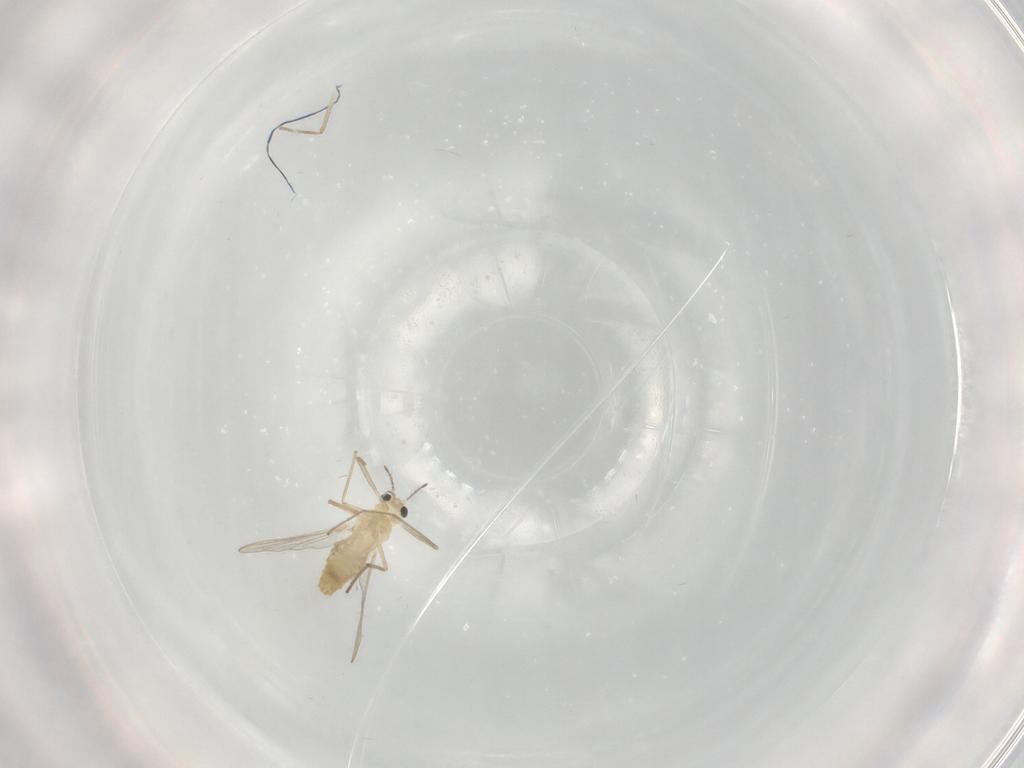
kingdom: Animalia
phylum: Arthropoda
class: Insecta
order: Diptera
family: Chironomidae
